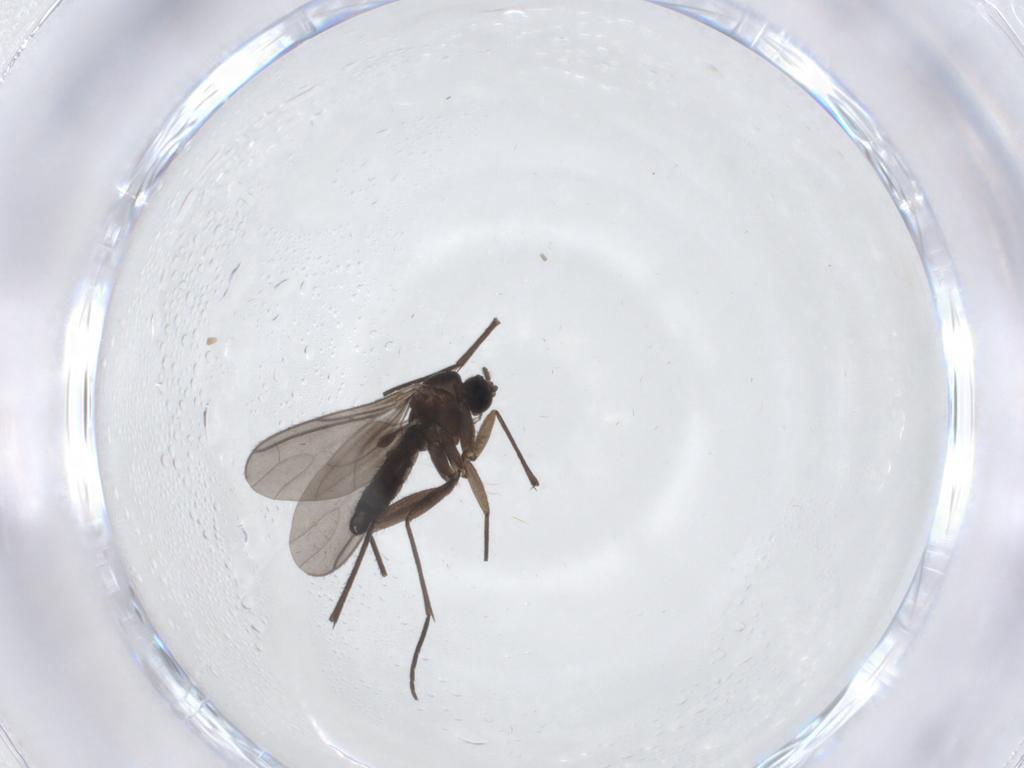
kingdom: Animalia
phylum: Arthropoda
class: Insecta
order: Diptera
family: Sciaridae
